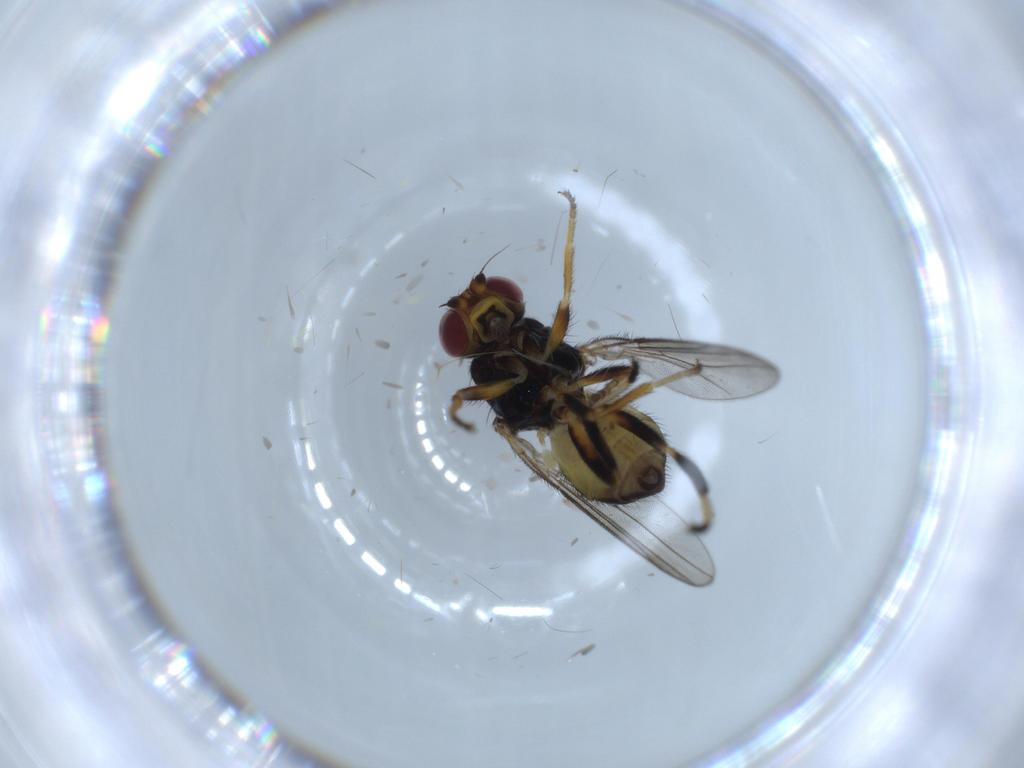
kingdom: Animalia
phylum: Arthropoda
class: Insecta
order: Diptera
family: Chloropidae
